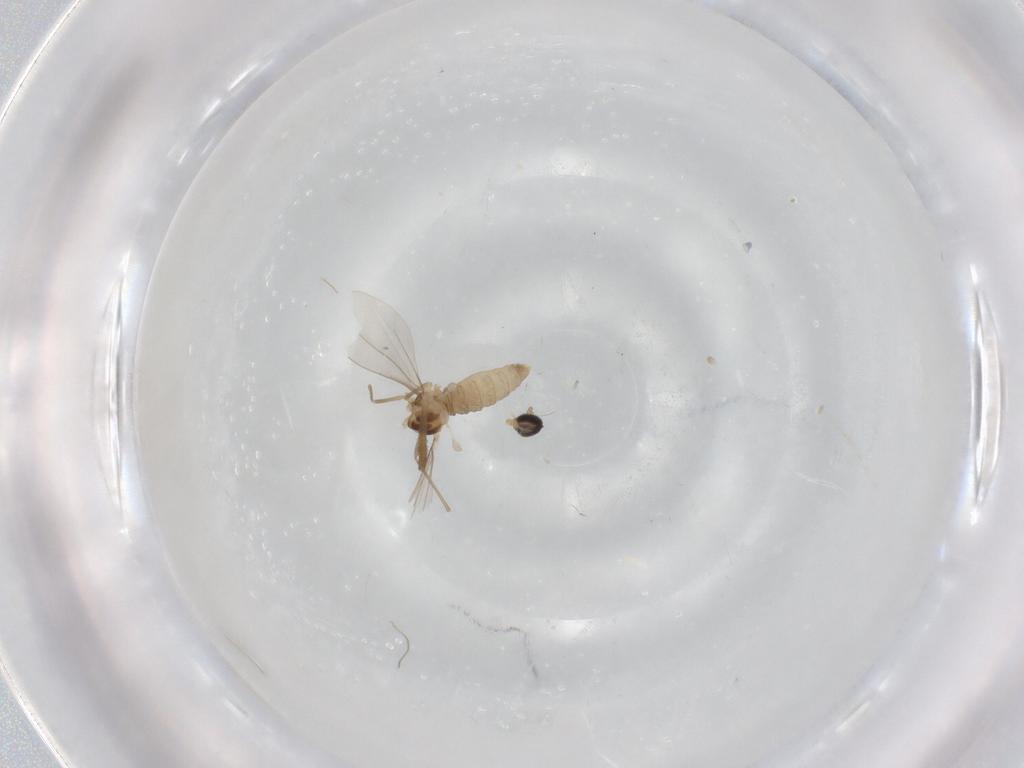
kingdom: Animalia
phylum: Arthropoda
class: Insecta
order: Diptera
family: Cecidomyiidae
